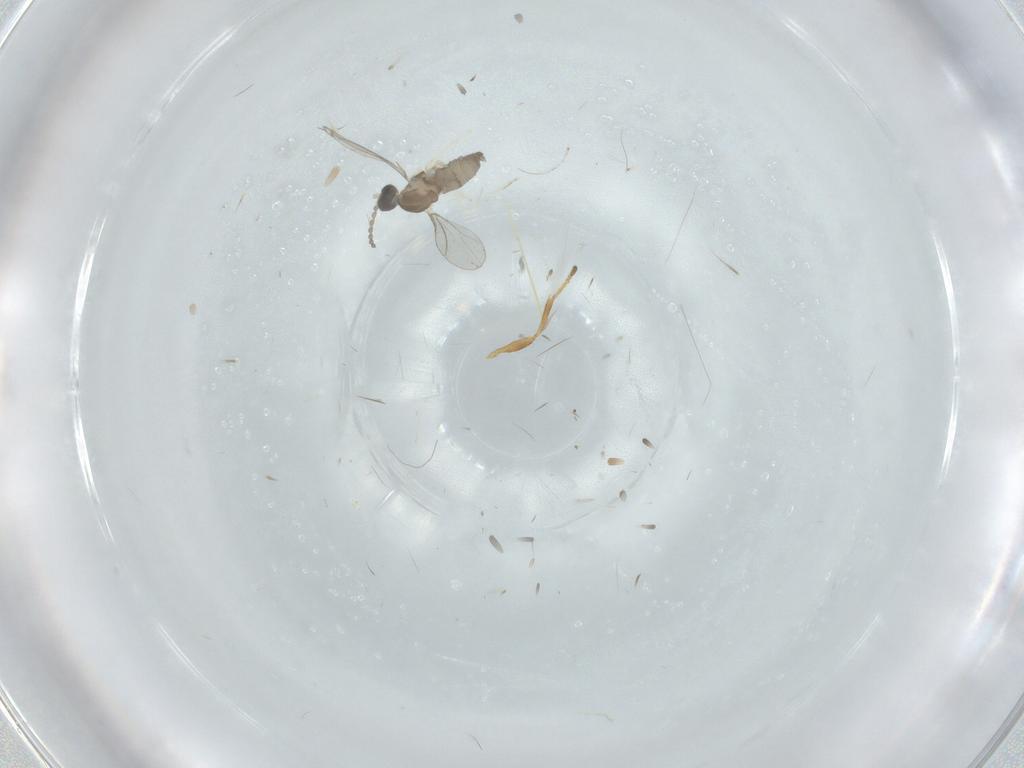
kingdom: Animalia
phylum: Arthropoda
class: Insecta
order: Diptera
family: Cecidomyiidae
